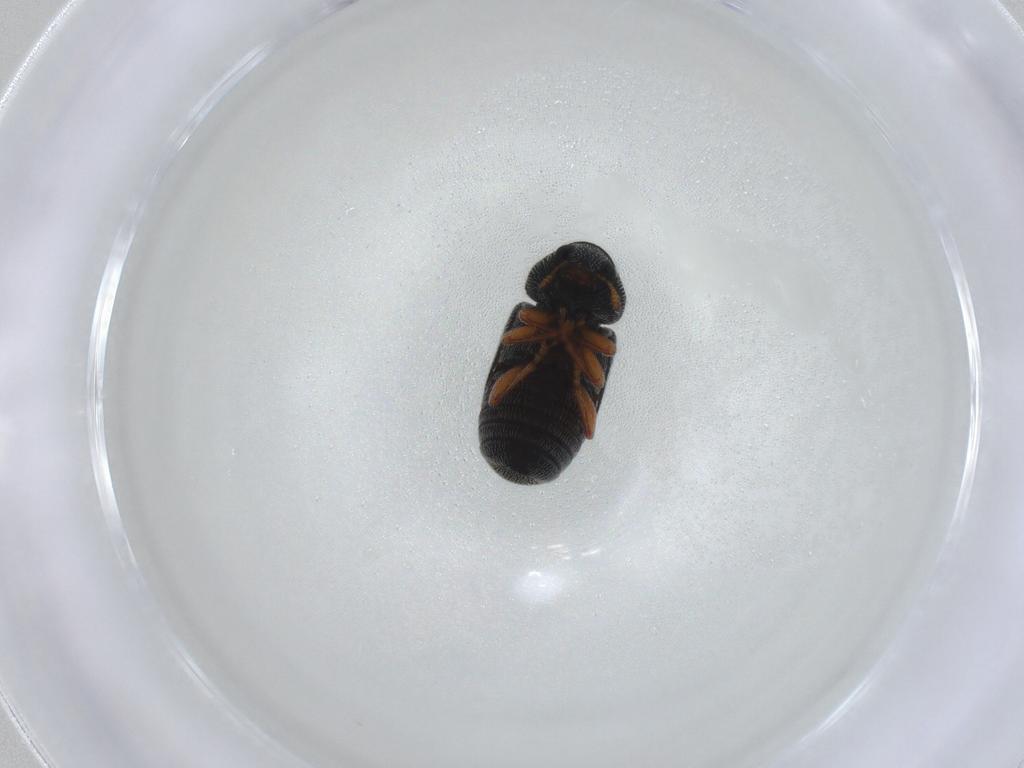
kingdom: Animalia
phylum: Arthropoda
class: Insecta
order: Coleoptera
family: Anthribidae
